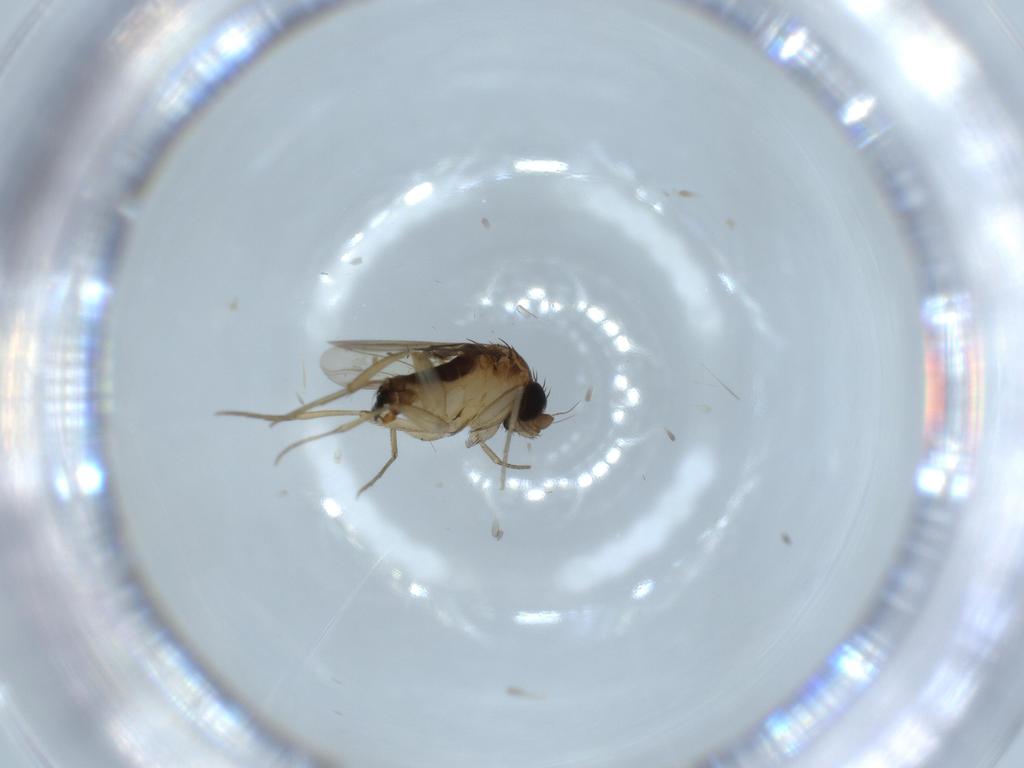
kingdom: Animalia
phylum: Arthropoda
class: Insecta
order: Diptera
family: Phoridae
